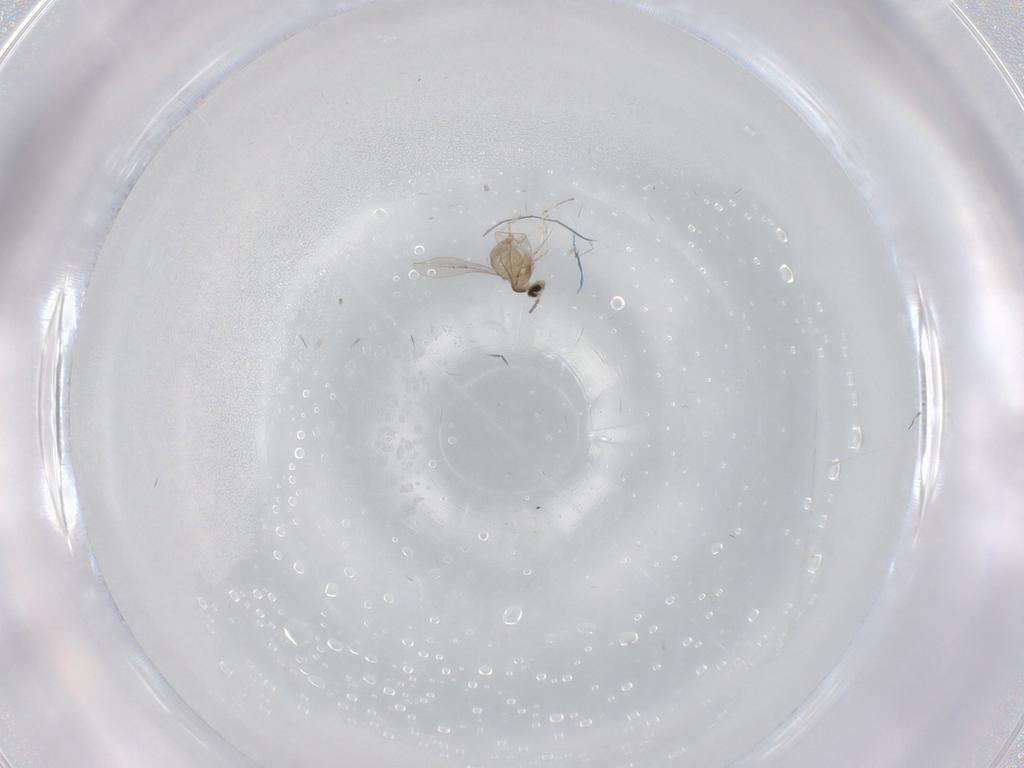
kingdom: Animalia
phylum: Arthropoda
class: Insecta
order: Diptera
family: Cecidomyiidae
